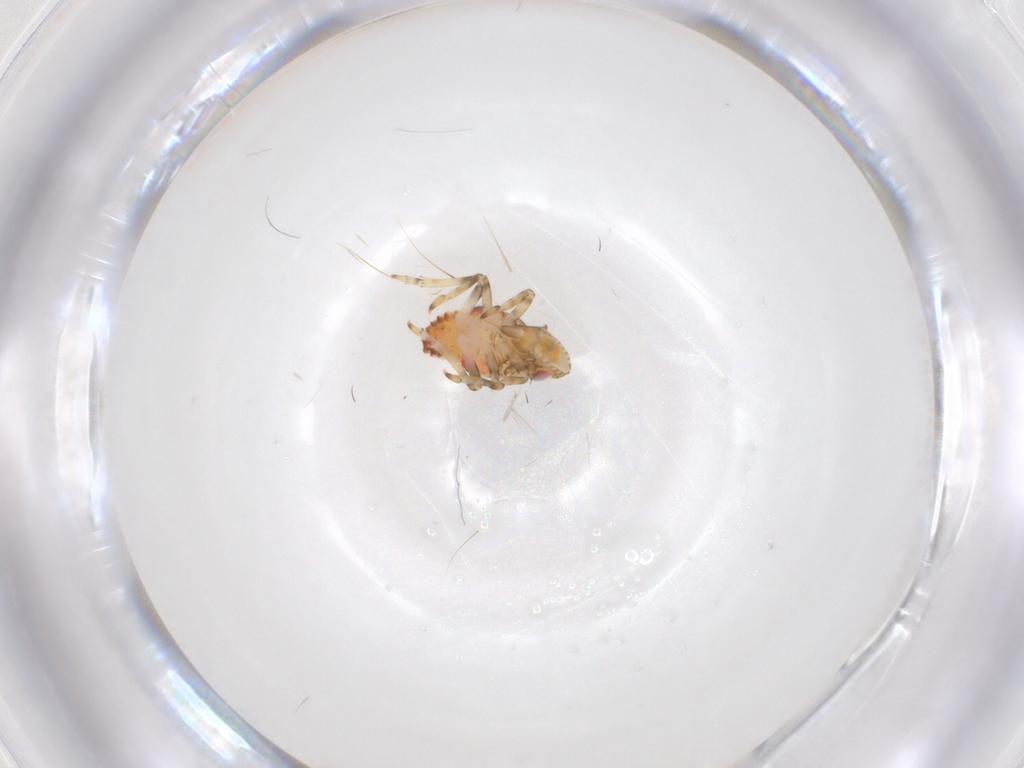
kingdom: Animalia
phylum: Arthropoda
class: Insecta
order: Hemiptera
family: Tropiduchidae
